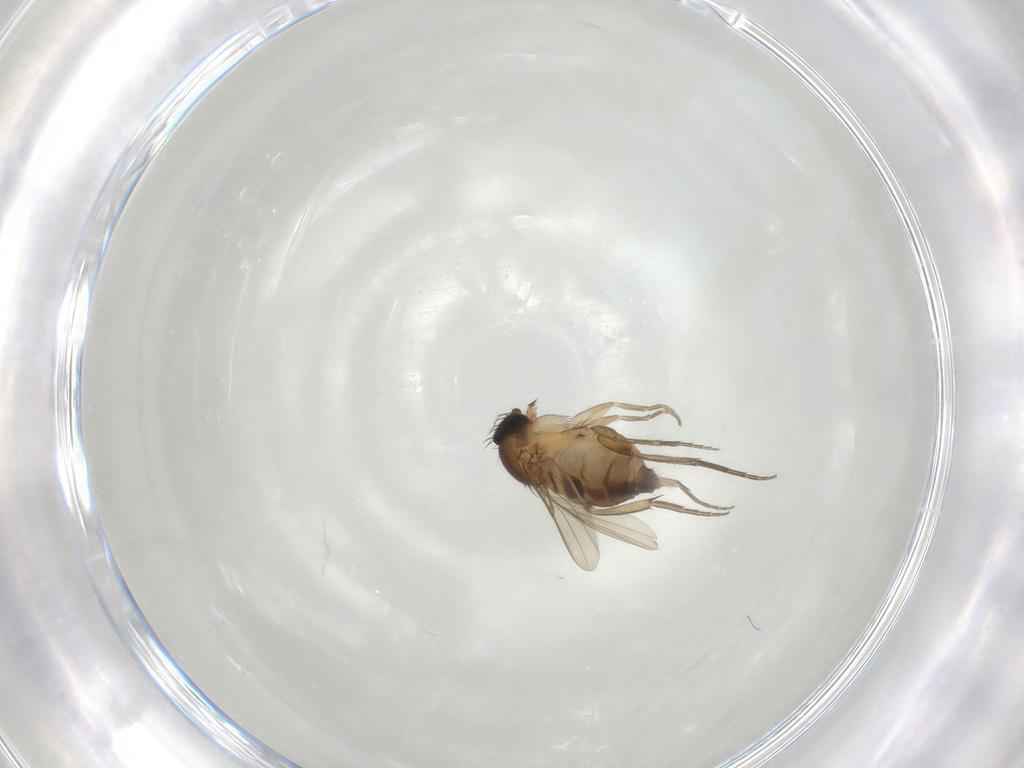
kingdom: Animalia
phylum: Arthropoda
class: Insecta
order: Diptera
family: Phoridae
